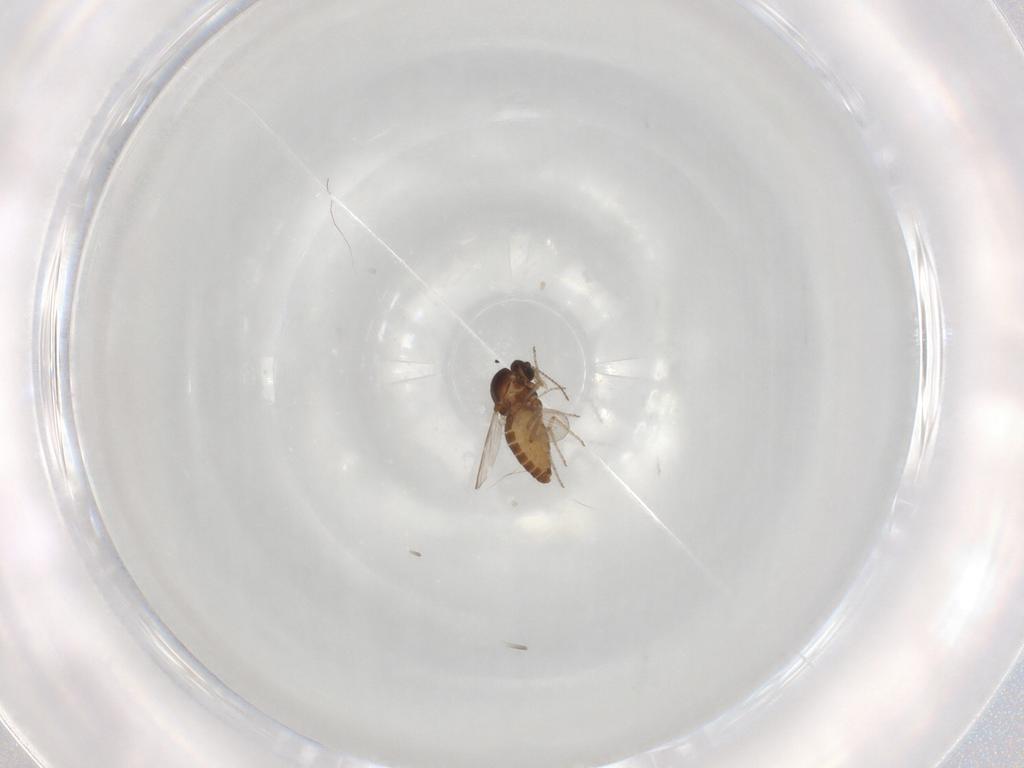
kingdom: Animalia
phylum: Arthropoda
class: Insecta
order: Diptera
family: Ceratopogonidae
